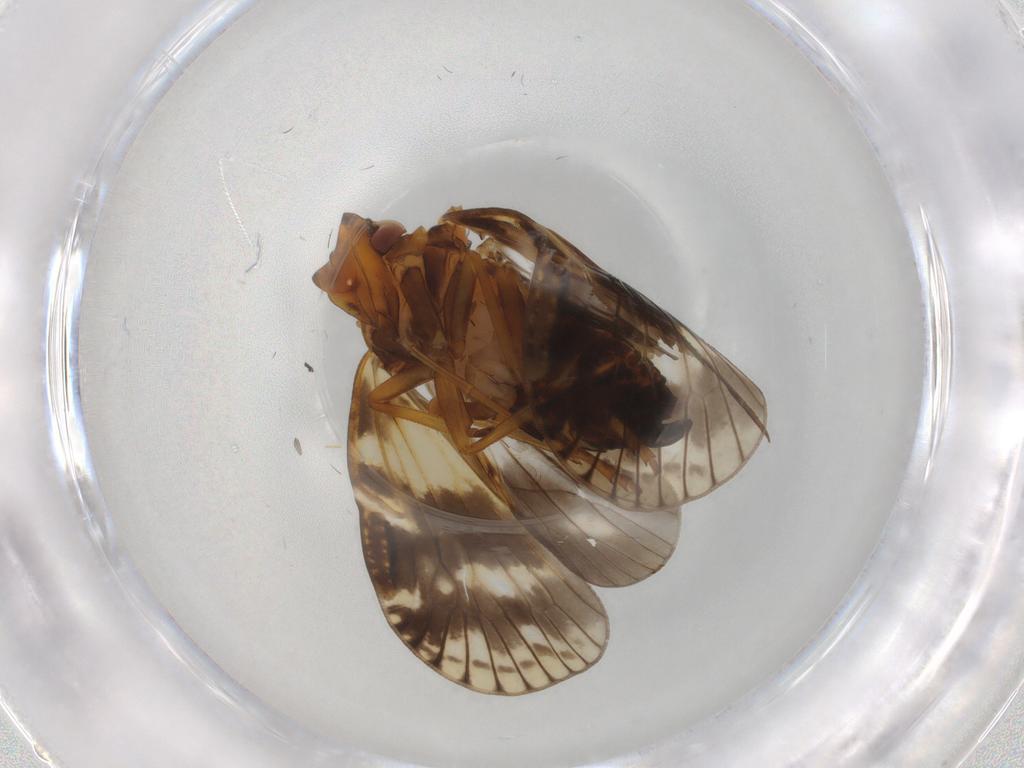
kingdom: Animalia
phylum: Arthropoda
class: Insecta
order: Hemiptera
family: Cixiidae
